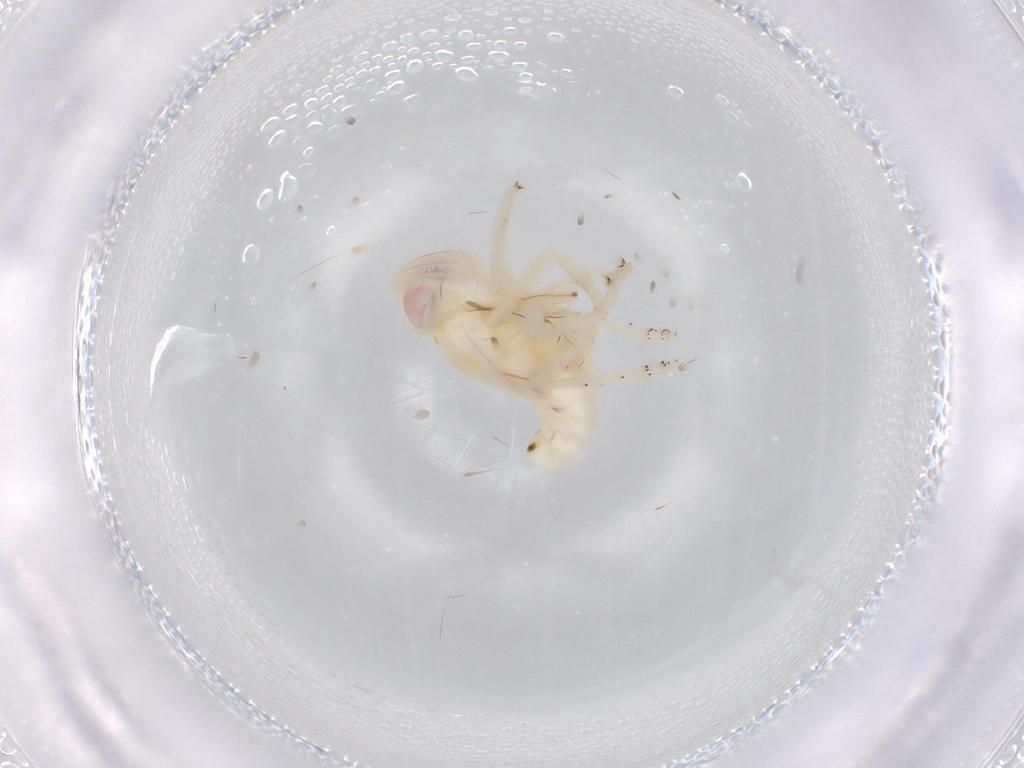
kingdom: Animalia
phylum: Arthropoda
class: Insecta
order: Hemiptera
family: Nogodinidae
